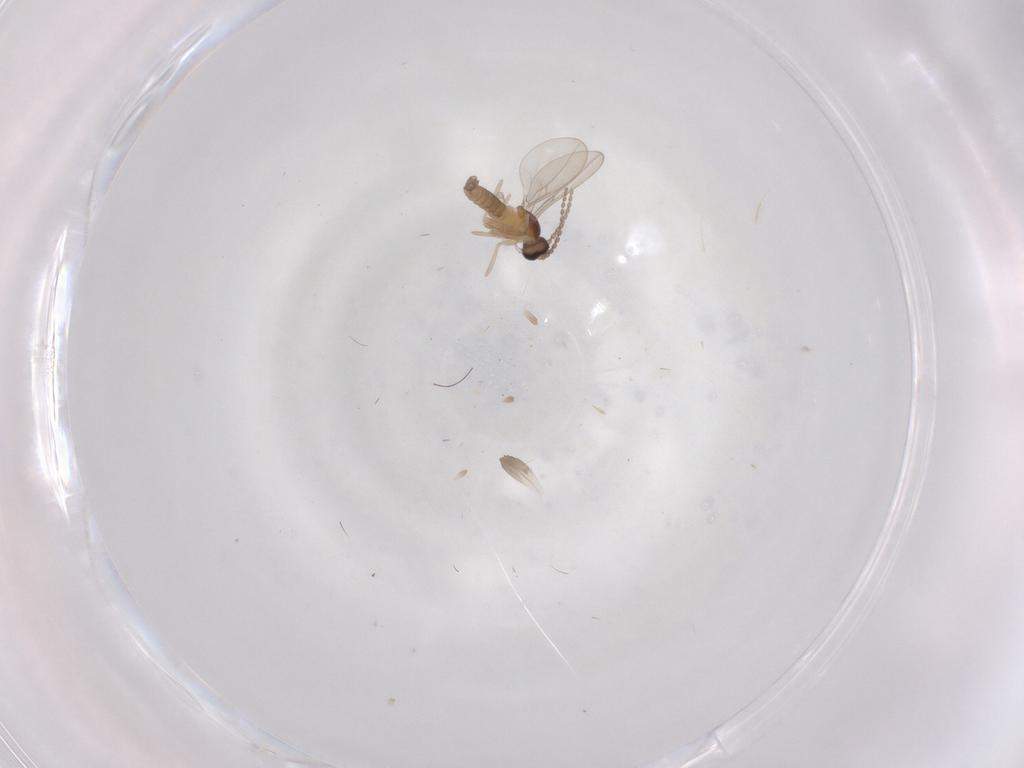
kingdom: Animalia
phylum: Arthropoda
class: Insecta
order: Diptera
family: Cecidomyiidae
